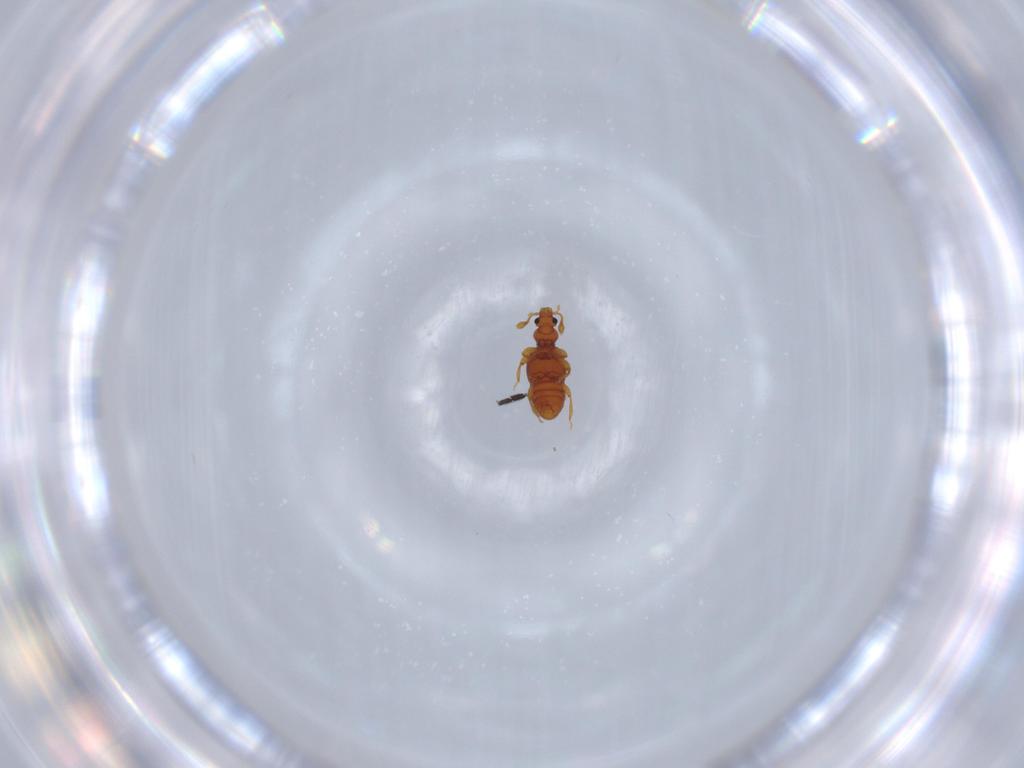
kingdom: Animalia
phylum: Arthropoda
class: Insecta
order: Coleoptera
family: Staphylinidae
